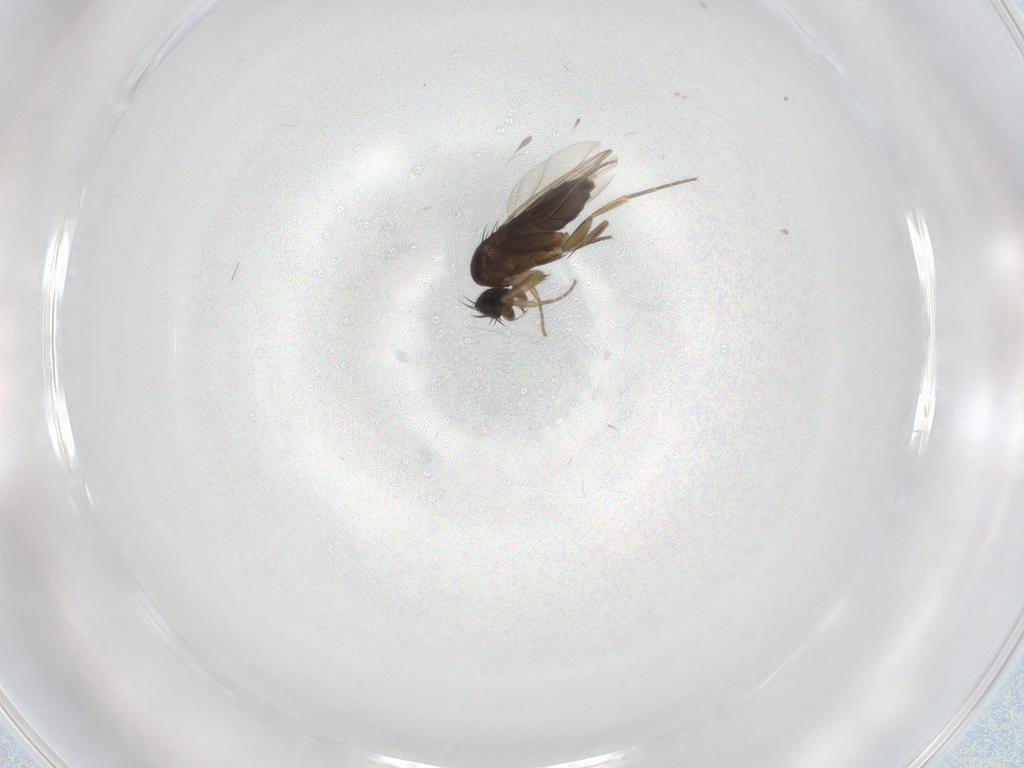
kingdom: Animalia
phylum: Arthropoda
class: Insecta
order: Diptera
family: Phoridae
